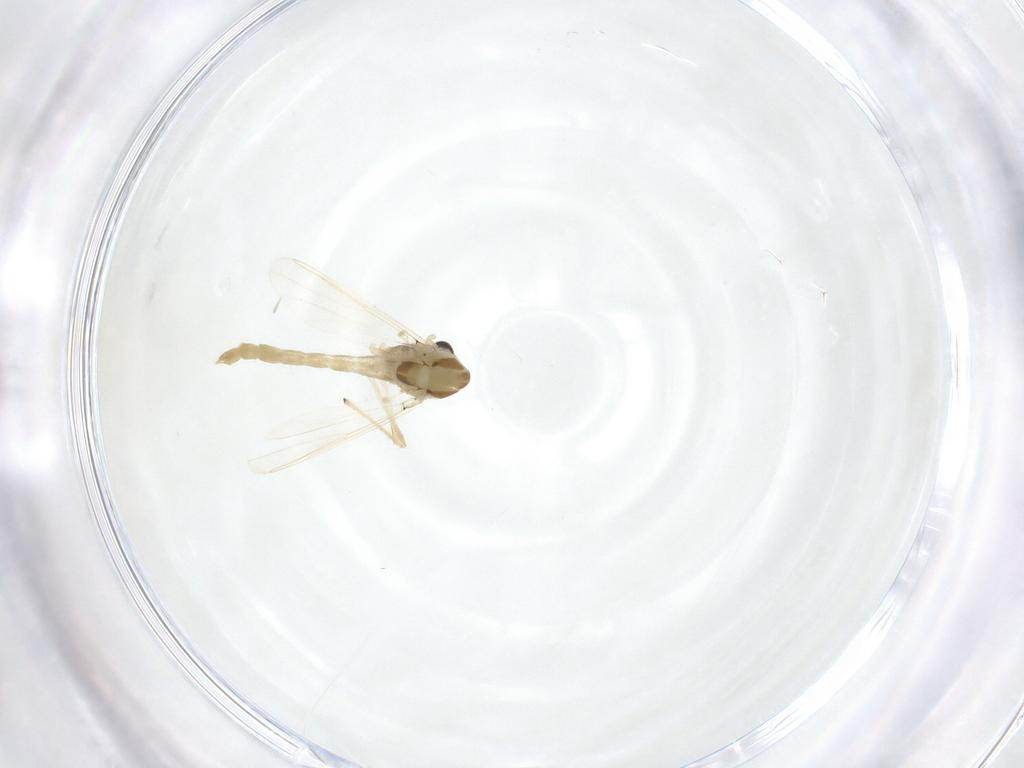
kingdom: Animalia
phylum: Arthropoda
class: Insecta
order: Diptera
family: Chironomidae
